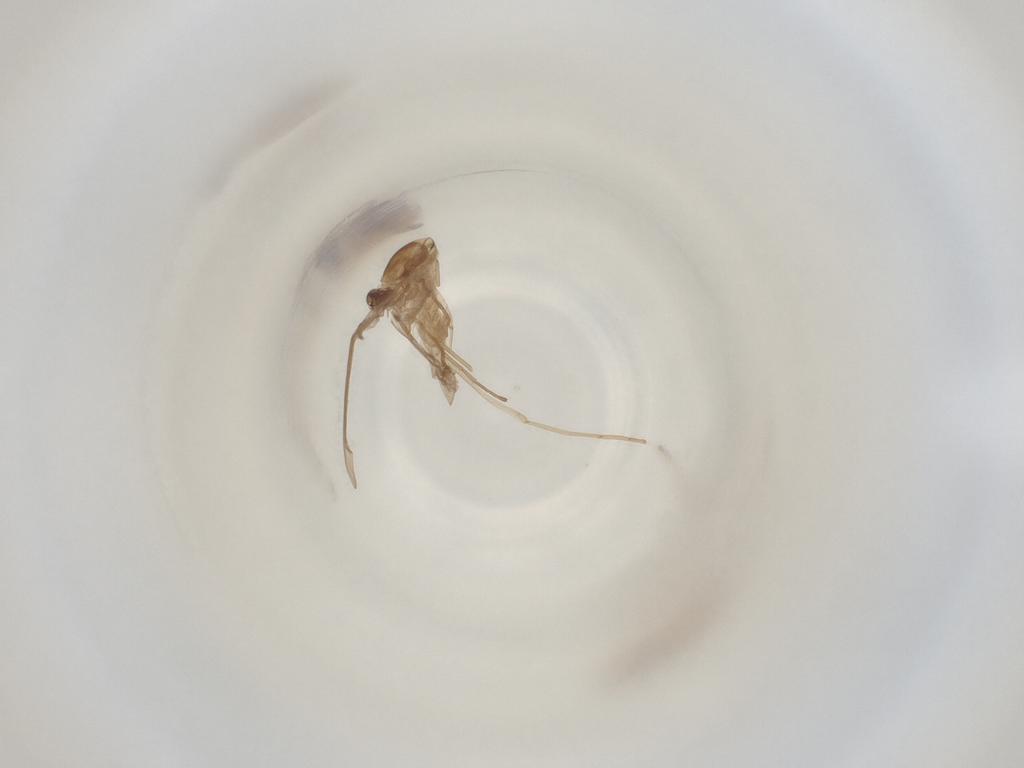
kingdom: Animalia
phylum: Arthropoda
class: Insecta
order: Diptera
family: Cecidomyiidae
